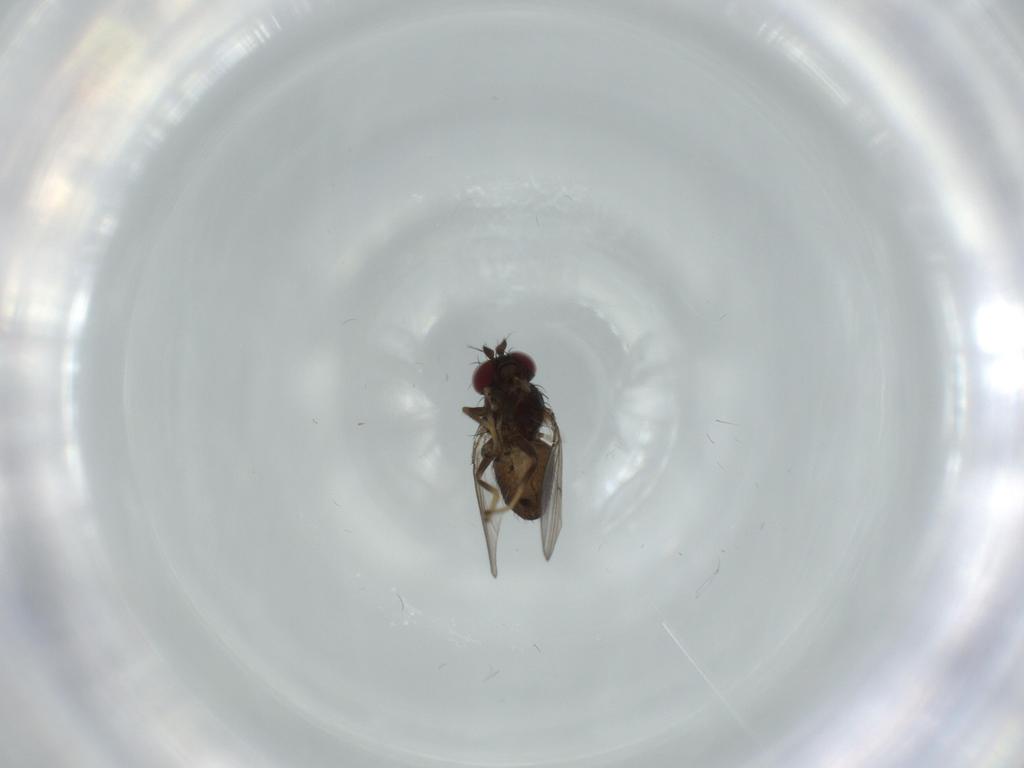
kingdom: Animalia
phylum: Arthropoda
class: Insecta
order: Diptera
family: Ephydridae
